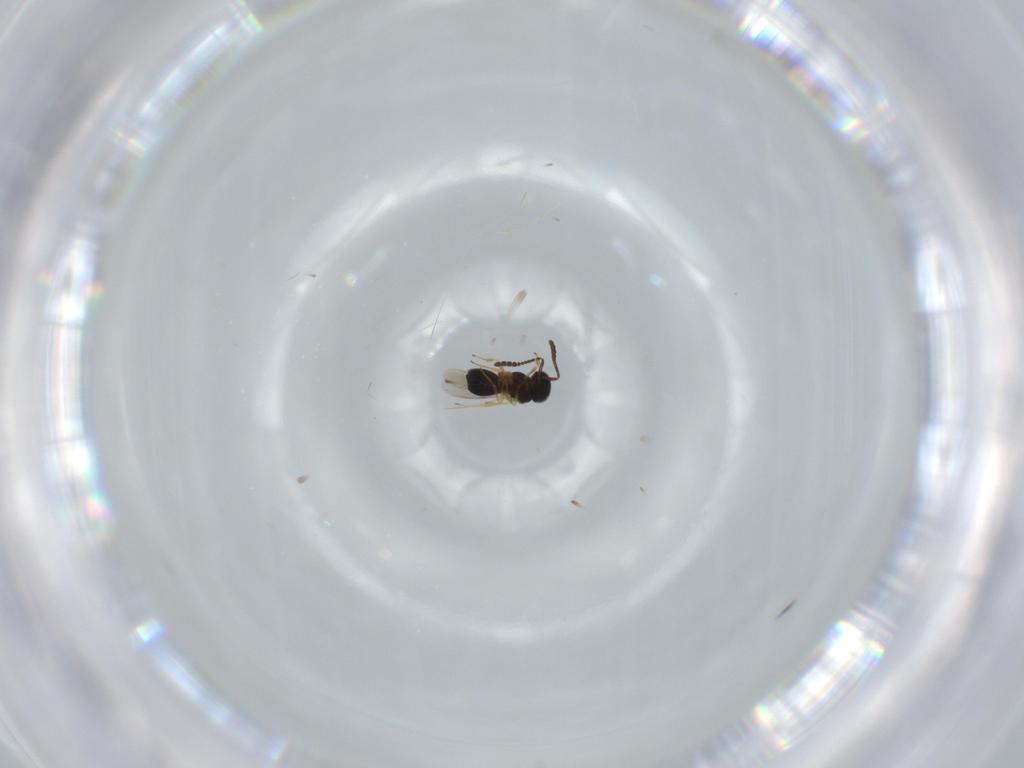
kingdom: Animalia
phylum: Arthropoda
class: Insecta
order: Hymenoptera
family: Scelionidae
